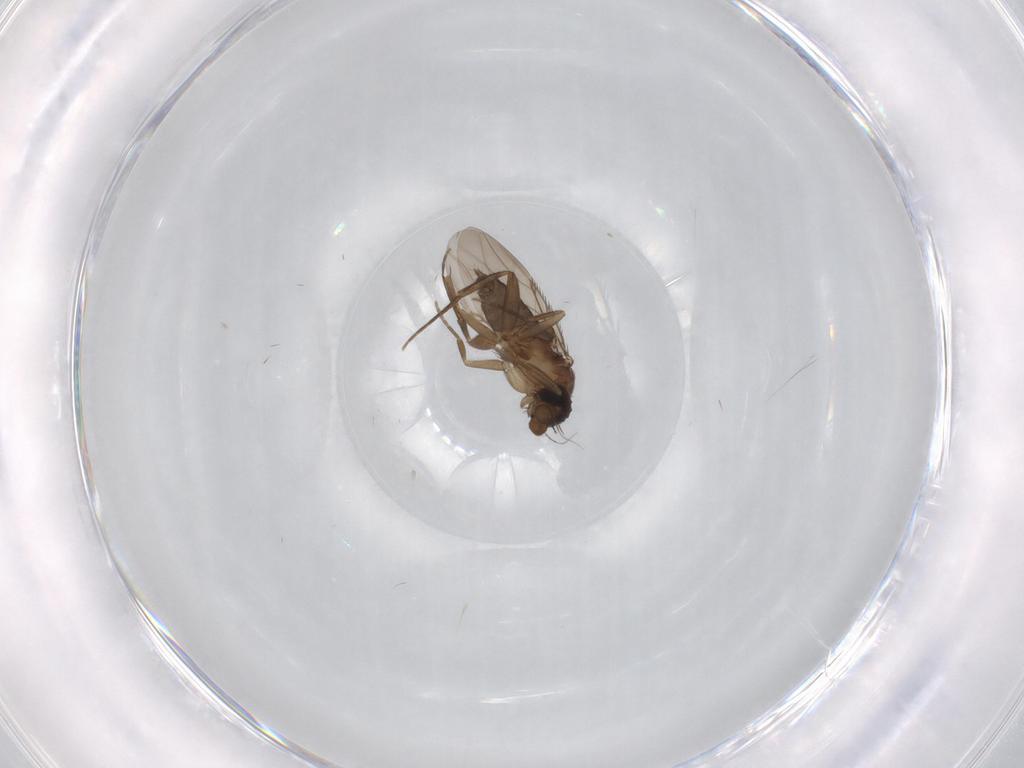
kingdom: Animalia
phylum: Arthropoda
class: Insecta
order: Diptera
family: Phoridae
